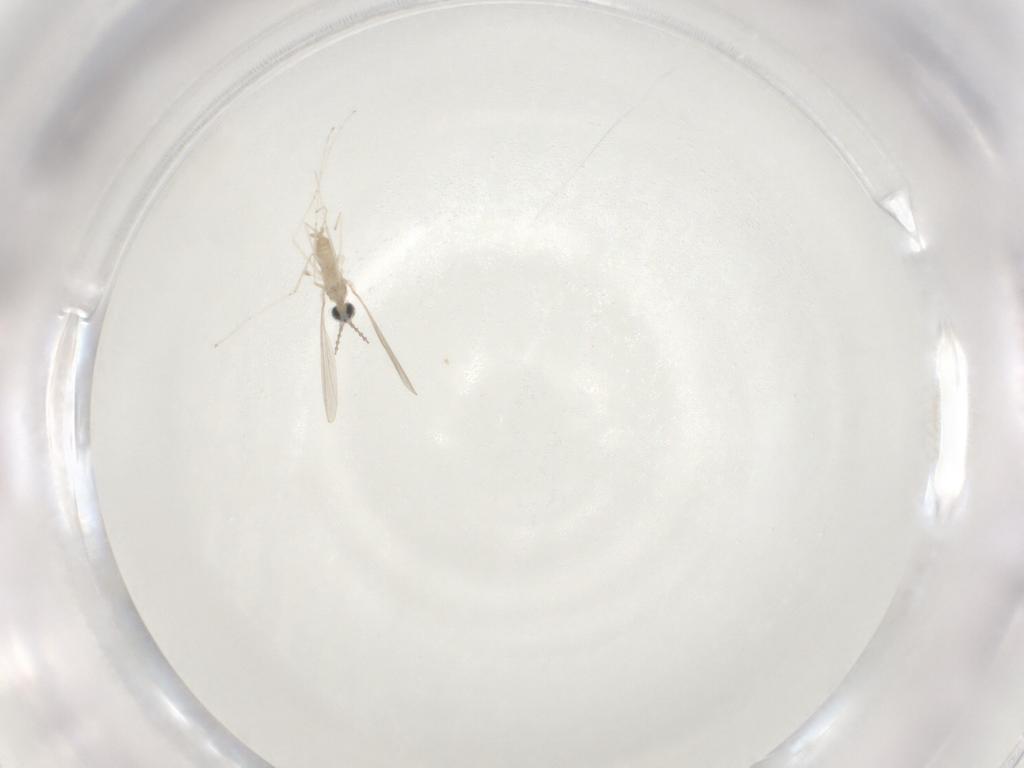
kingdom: Animalia
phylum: Arthropoda
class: Insecta
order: Diptera
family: Cecidomyiidae
